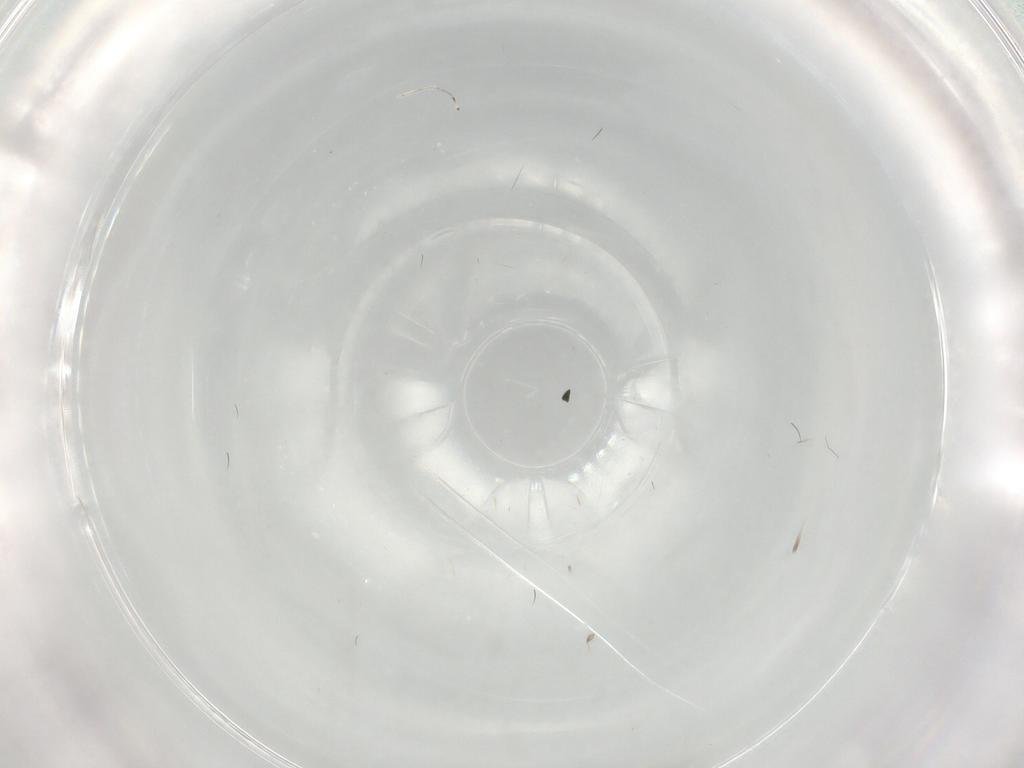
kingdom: Animalia
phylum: Arthropoda
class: Insecta
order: Diptera
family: Cecidomyiidae
